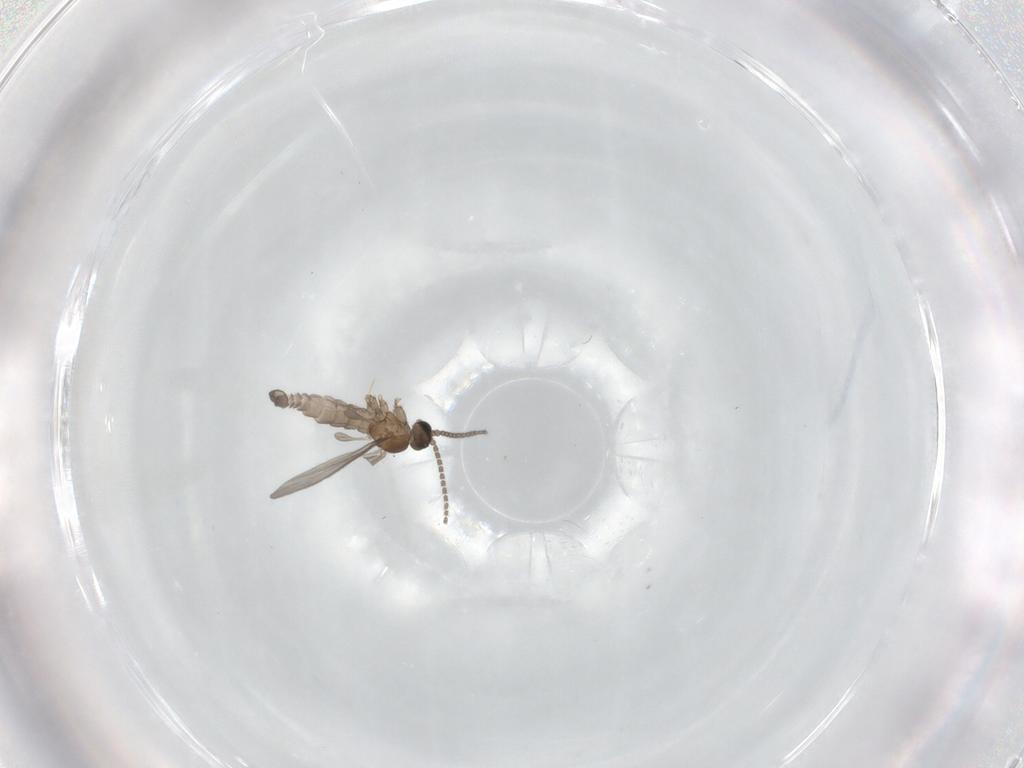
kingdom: Animalia
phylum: Arthropoda
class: Insecta
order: Diptera
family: Sciaridae
